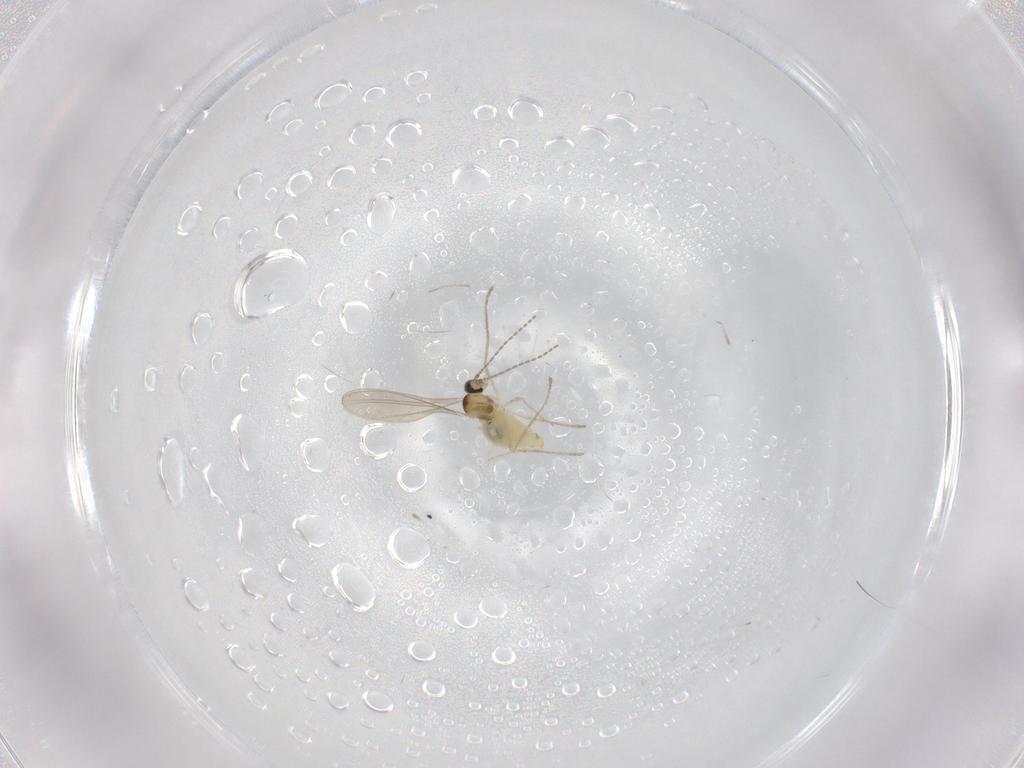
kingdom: Animalia
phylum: Arthropoda
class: Insecta
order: Diptera
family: Cecidomyiidae
